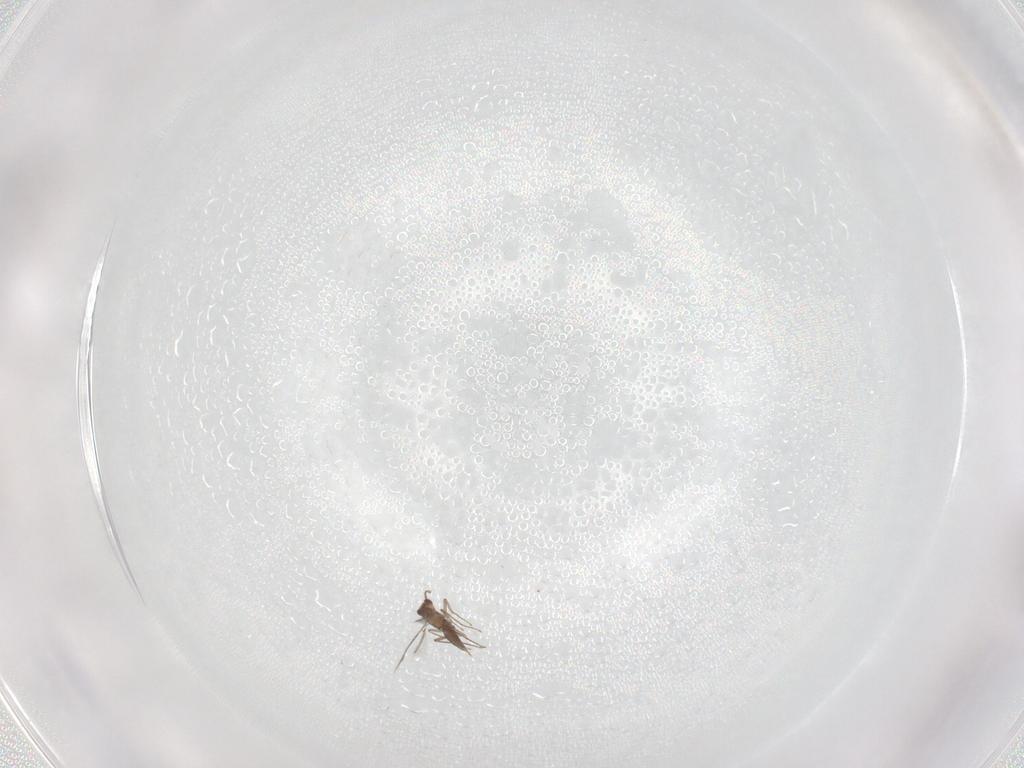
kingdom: Animalia
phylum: Arthropoda
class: Insecta
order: Hymenoptera
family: Mymaridae
